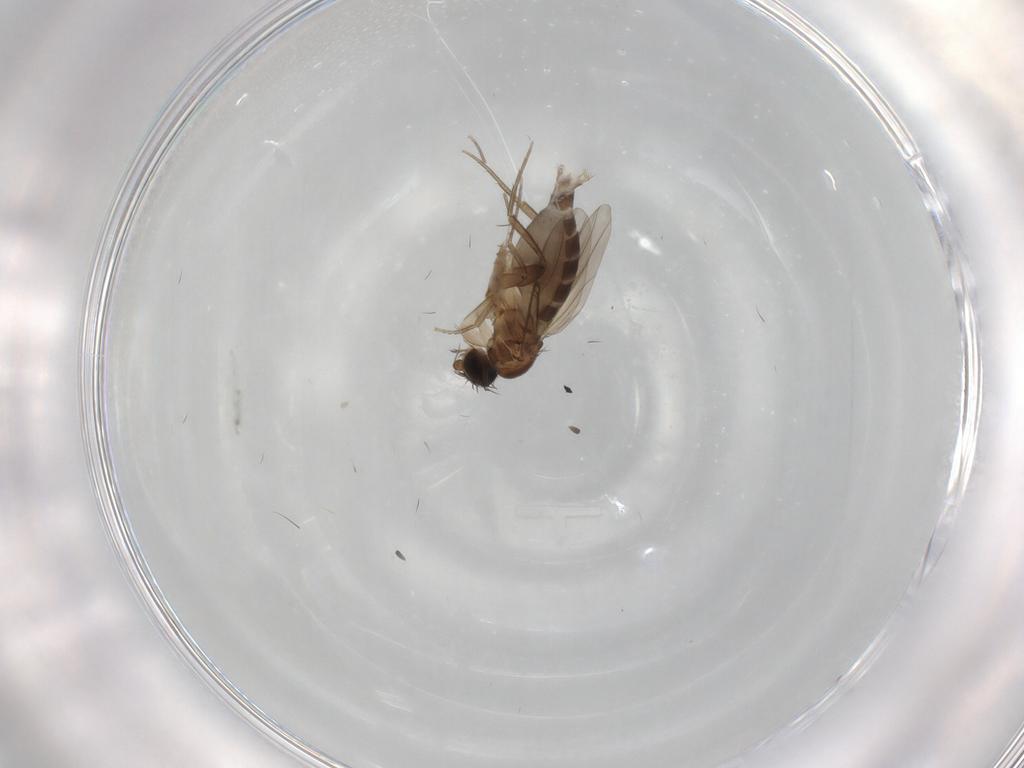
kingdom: Animalia
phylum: Arthropoda
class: Insecta
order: Diptera
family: Phoridae
